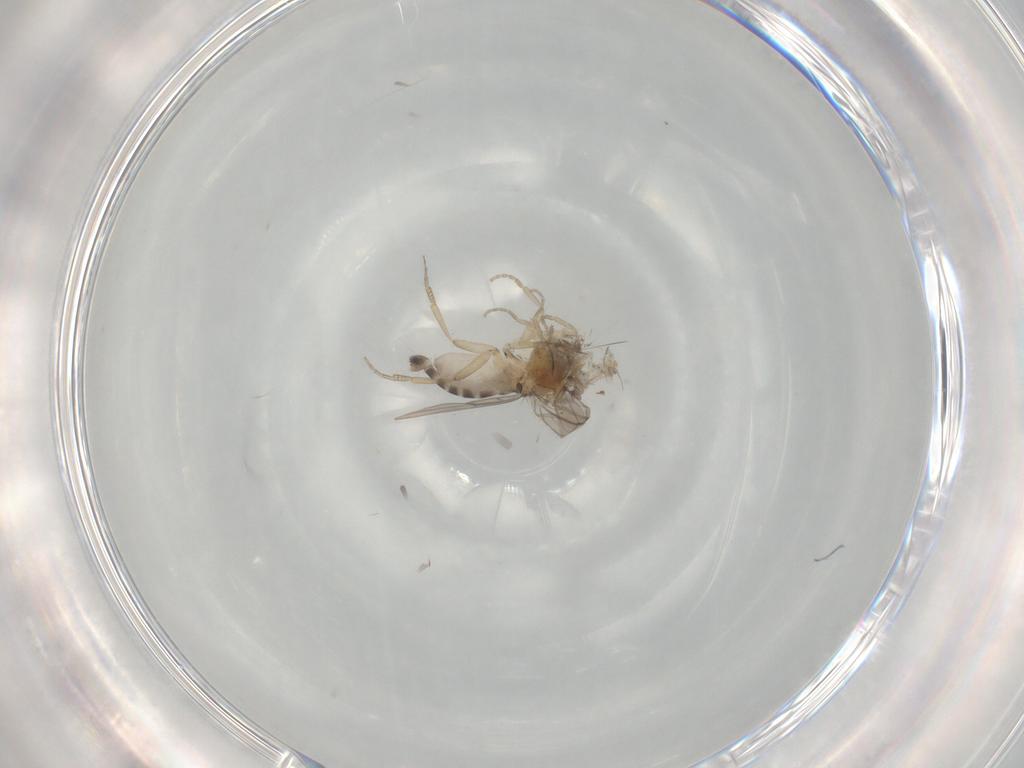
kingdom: Animalia
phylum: Arthropoda
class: Insecta
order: Diptera
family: Phoridae
